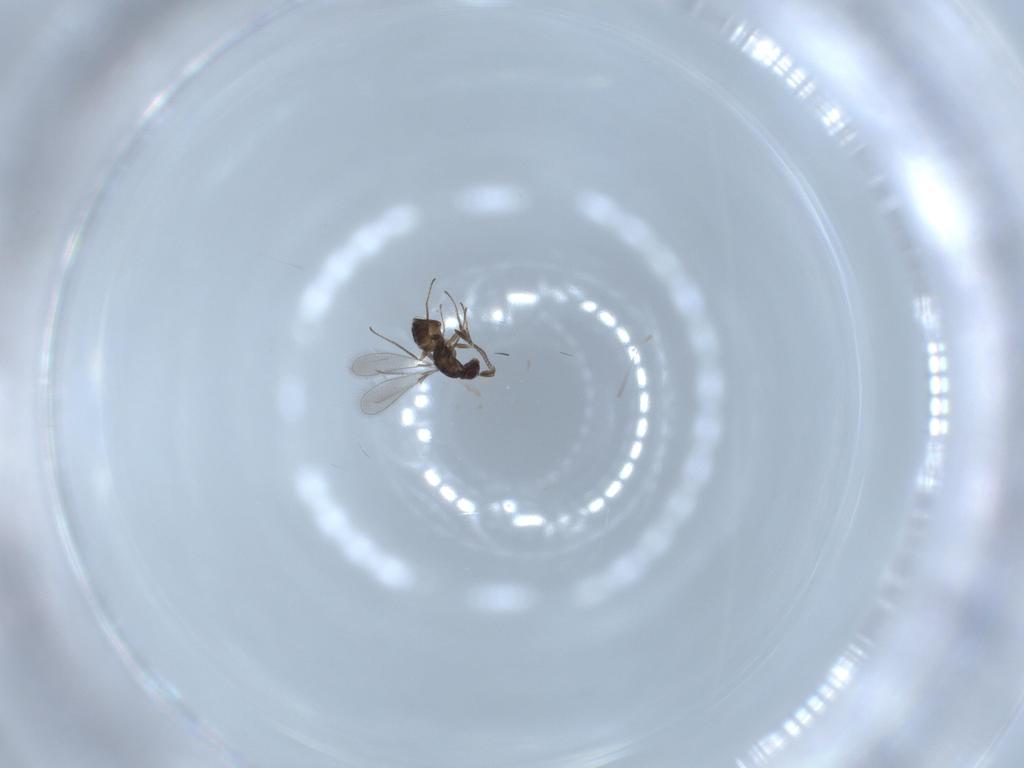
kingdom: Animalia
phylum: Arthropoda
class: Insecta
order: Hymenoptera
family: Mymaridae
